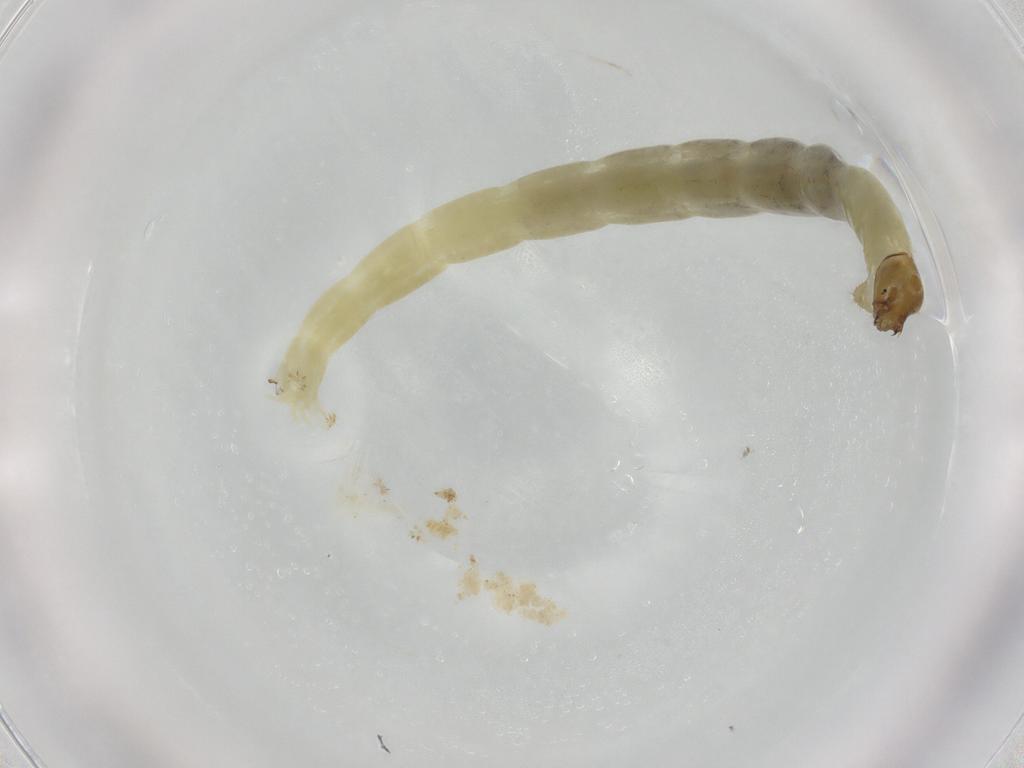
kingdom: Animalia
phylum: Arthropoda
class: Insecta
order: Diptera
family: Chironomidae
